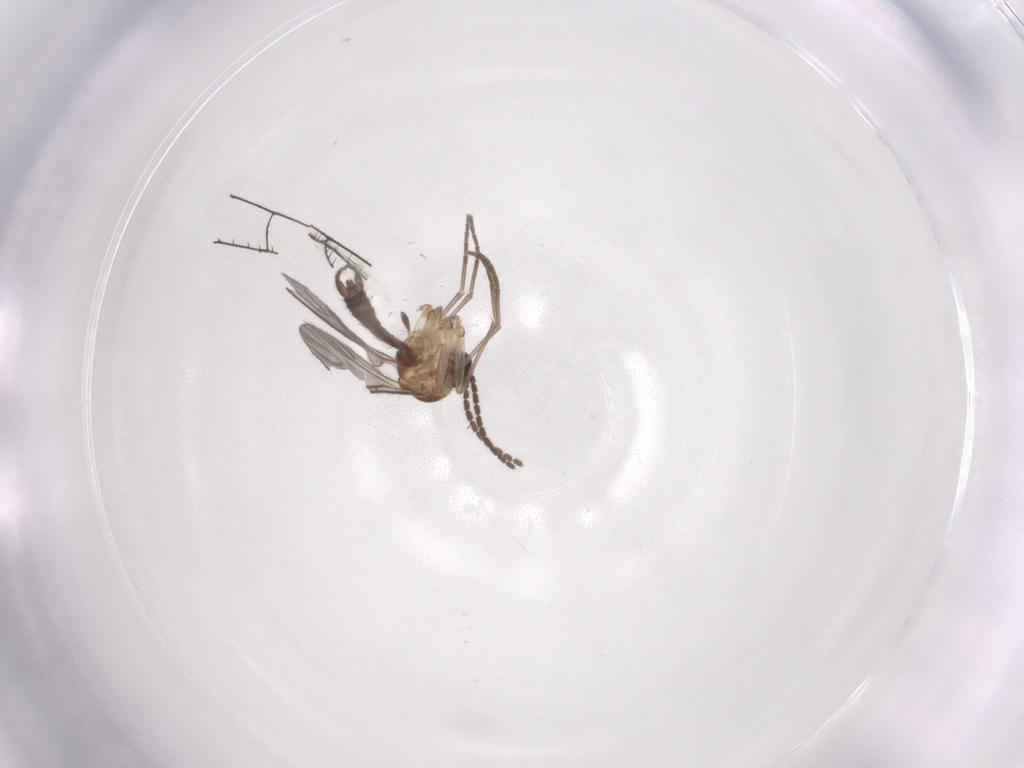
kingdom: Animalia
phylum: Arthropoda
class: Insecta
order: Diptera
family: Sciaridae
